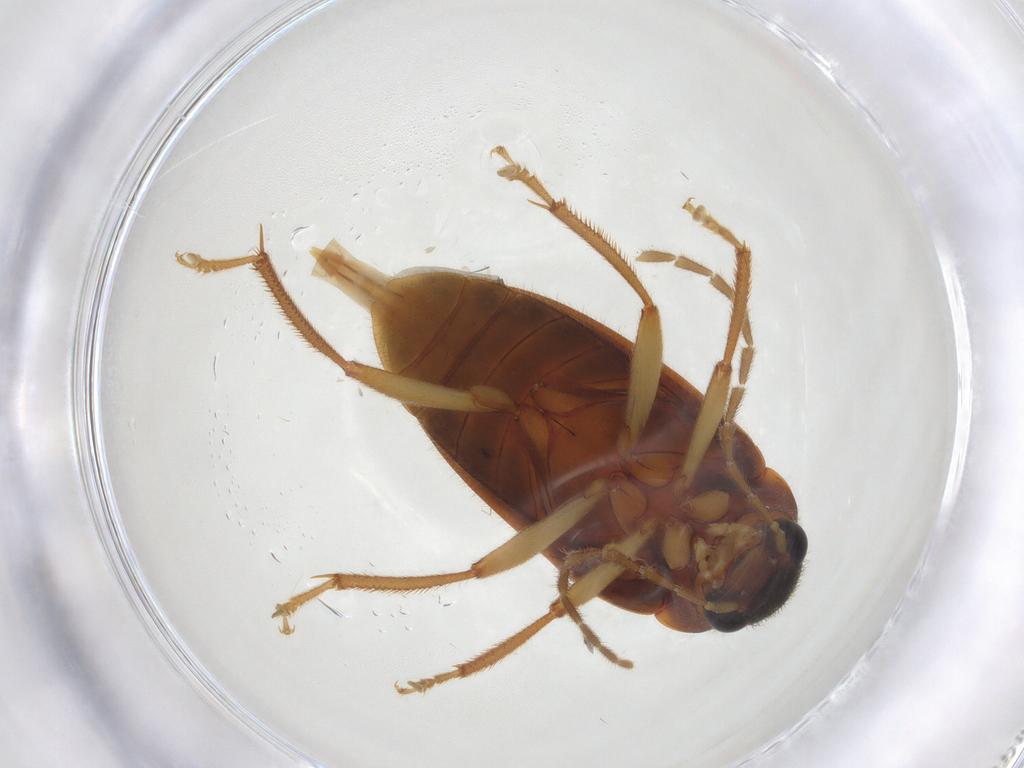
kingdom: Animalia
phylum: Arthropoda
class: Insecta
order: Coleoptera
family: Ptilodactylidae
